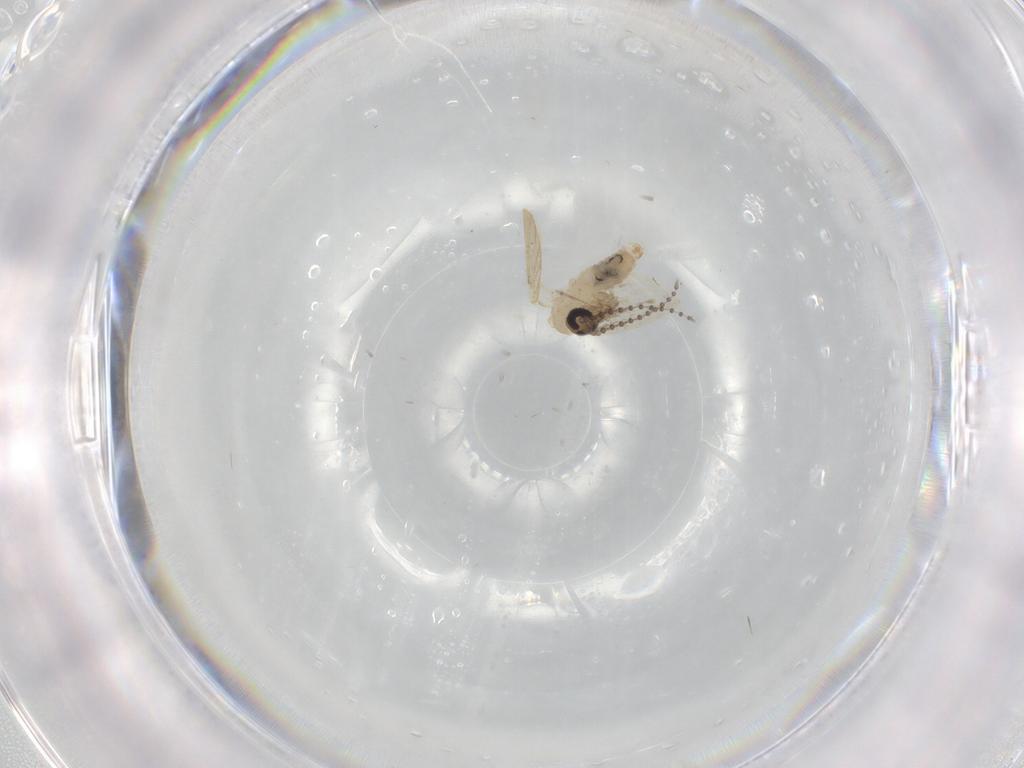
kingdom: Animalia
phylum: Arthropoda
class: Insecta
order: Diptera
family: Psychodidae
